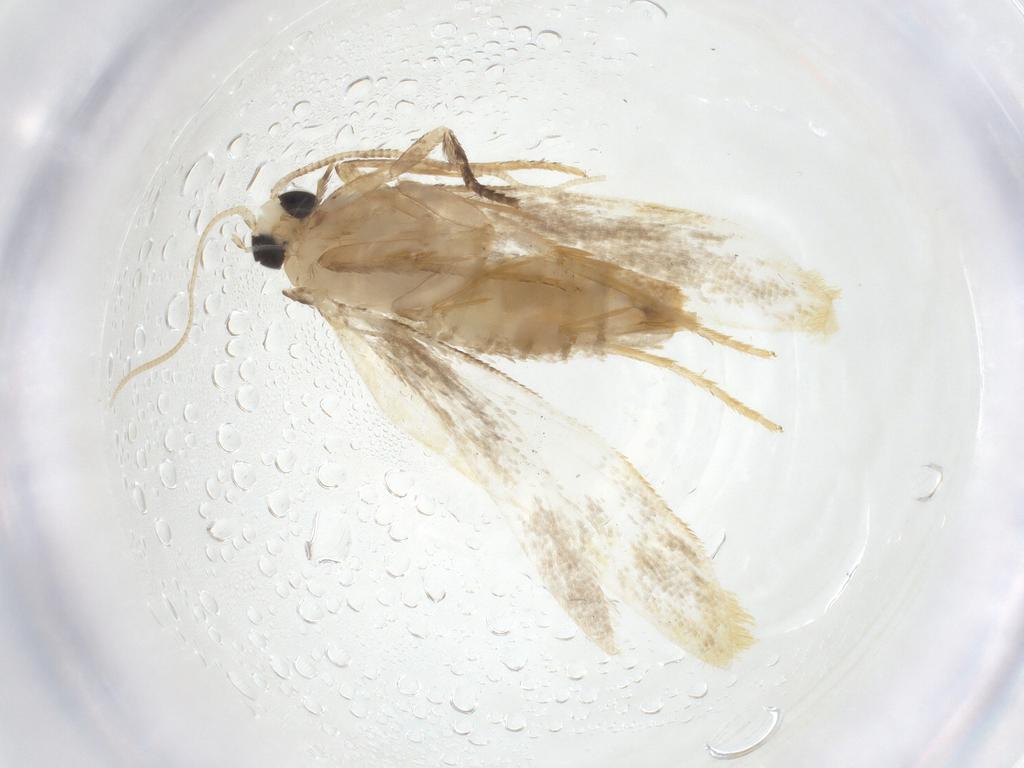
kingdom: Animalia
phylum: Arthropoda
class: Insecta
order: Lepidoptera
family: Tineidae
